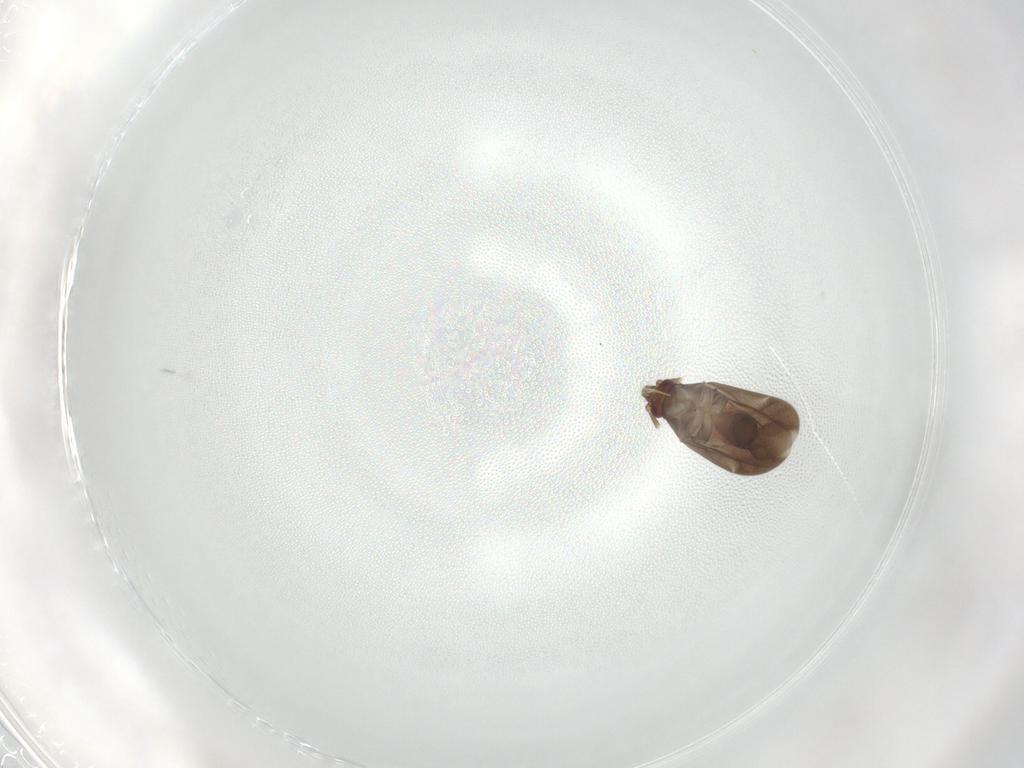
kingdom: Animalia
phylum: Arthropoda
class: Insecta
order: Hemiptera
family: Ceratocombidae
